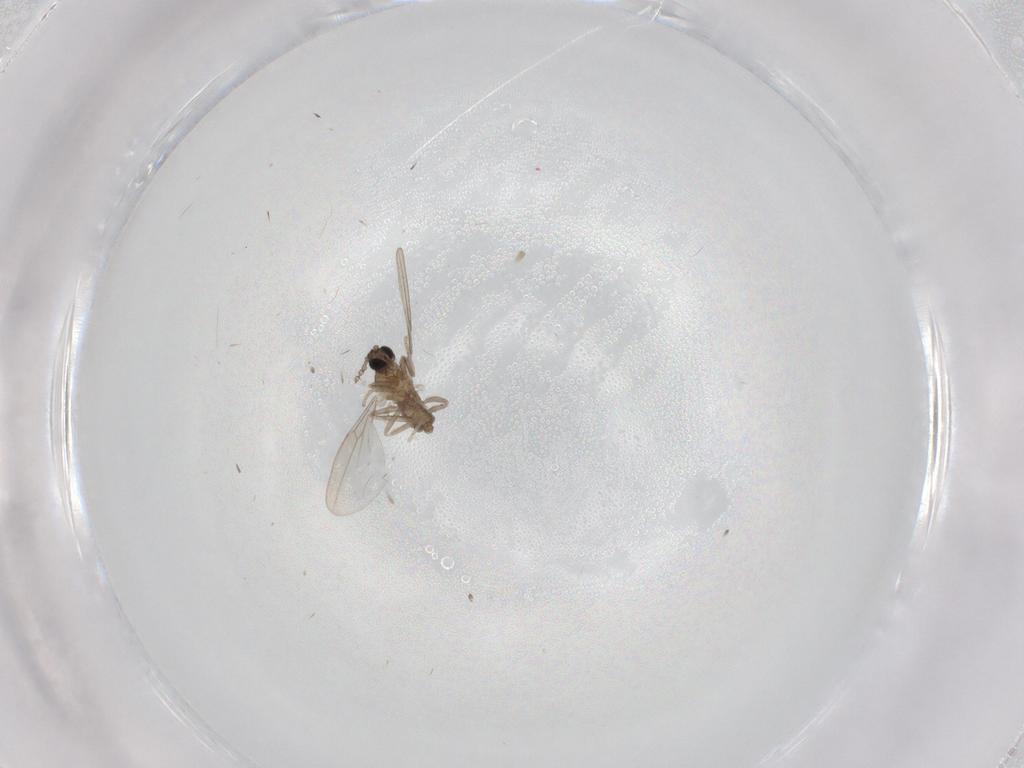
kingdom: Animalia
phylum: Arthropoda
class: Insecta
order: Diptera
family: Cecidomyiidae
